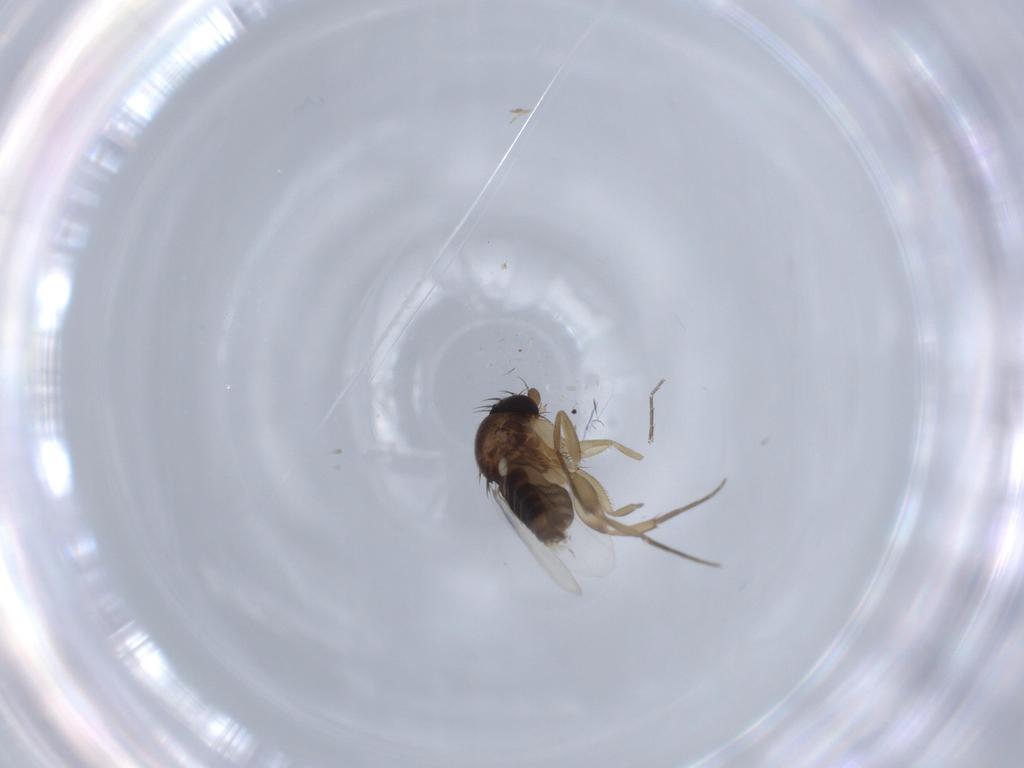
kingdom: Animalia
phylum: Arthropoda
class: Insecta
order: Diptera
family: Phoridae
